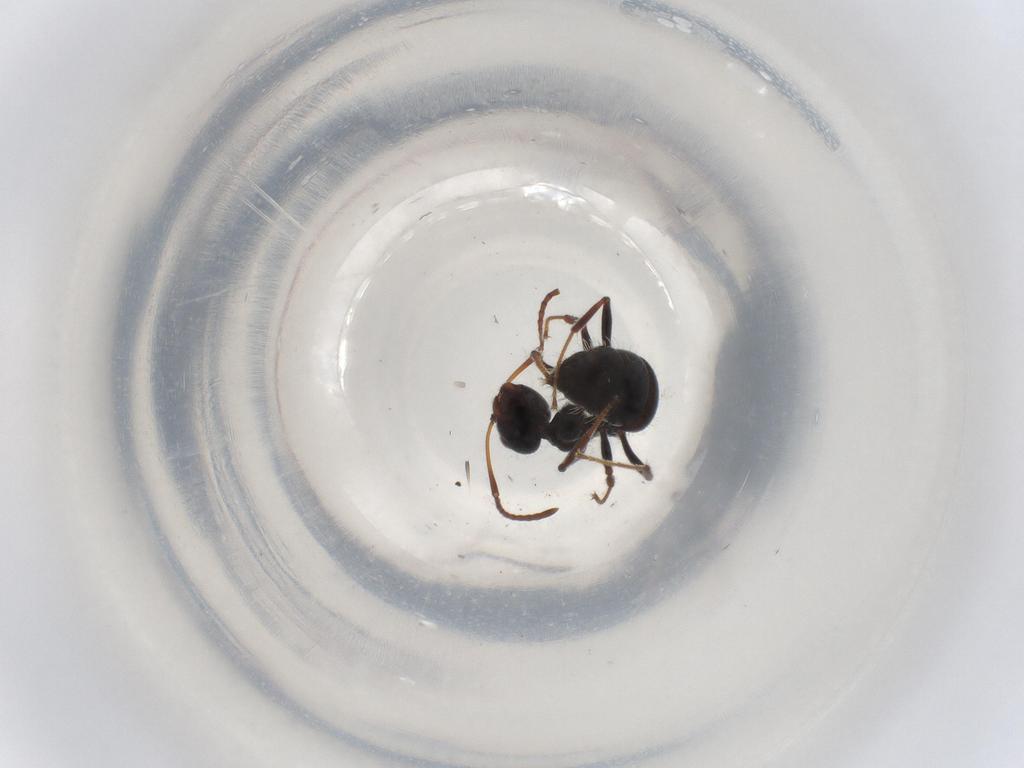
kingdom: Animalia
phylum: Arthropoda
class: Insecta
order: Hymenoptera
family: Formicidae
